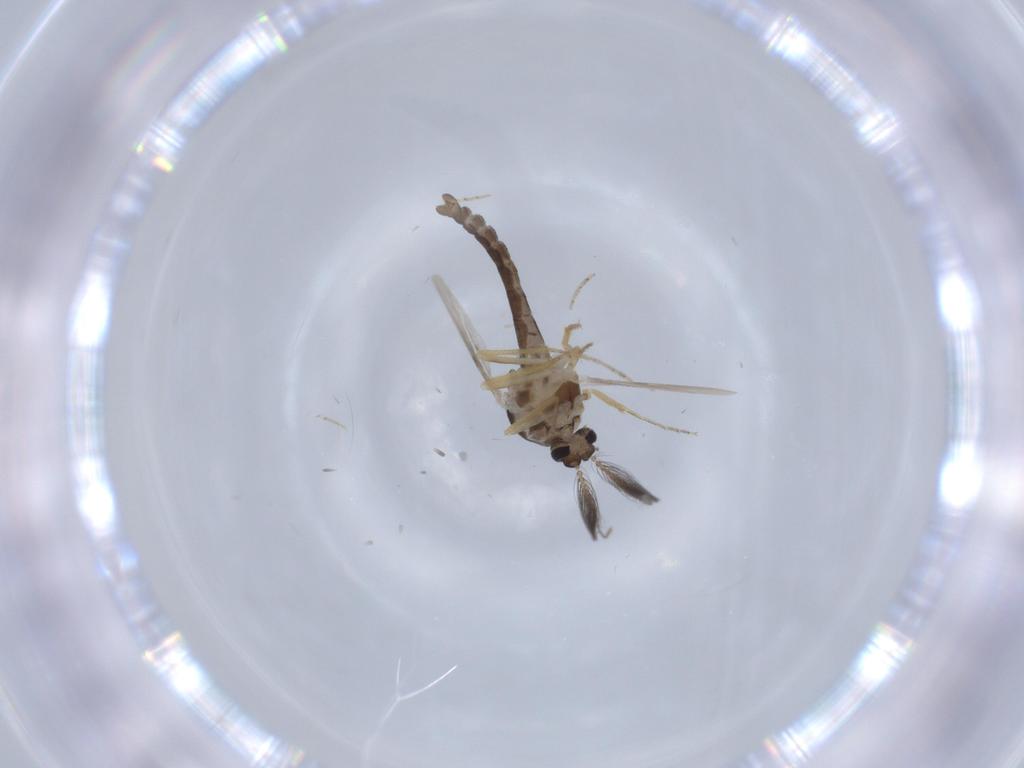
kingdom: Animalia
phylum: Arthropoda
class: Insecta
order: Diptera
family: Ceratopogonidae
